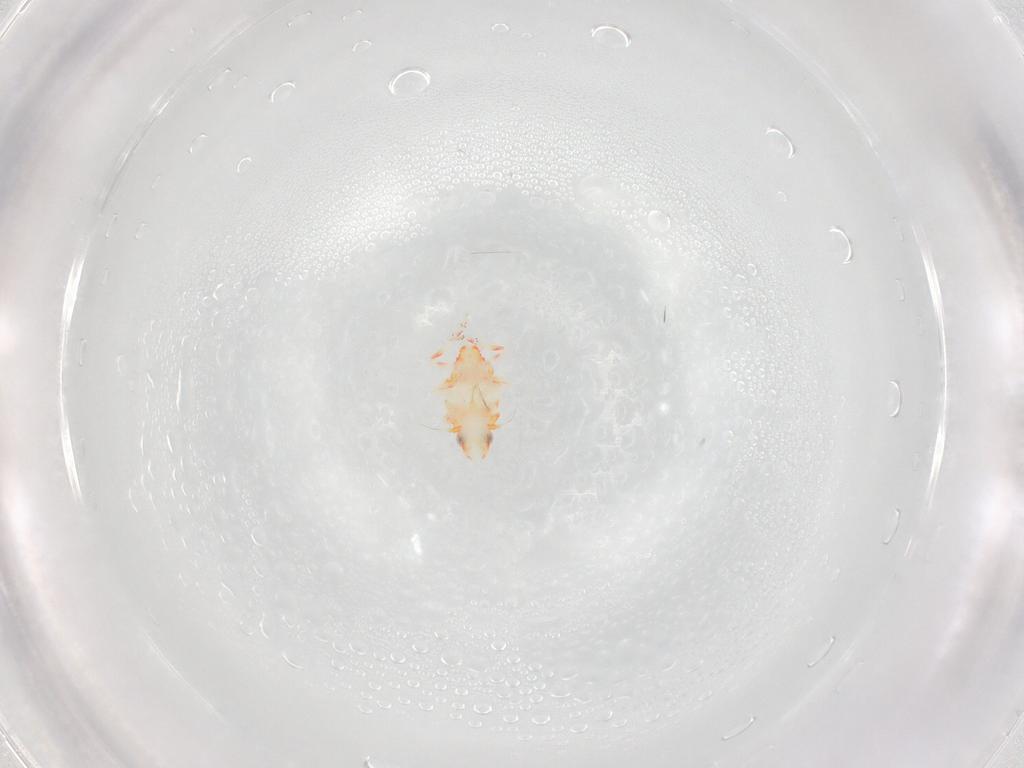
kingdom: Animalia
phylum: Arthropoda
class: Insecta
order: Hemiptera
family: Tropiduchidae
